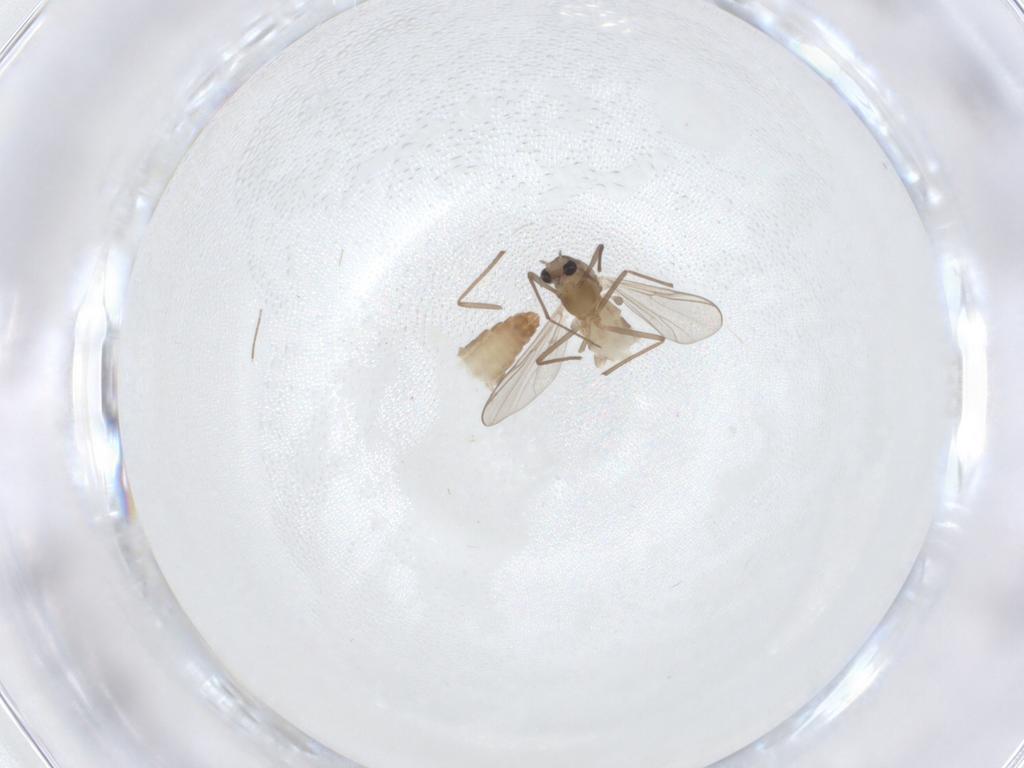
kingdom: Animalia
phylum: Arthropoda
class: Insecta
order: Diptera
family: Chironomidae
